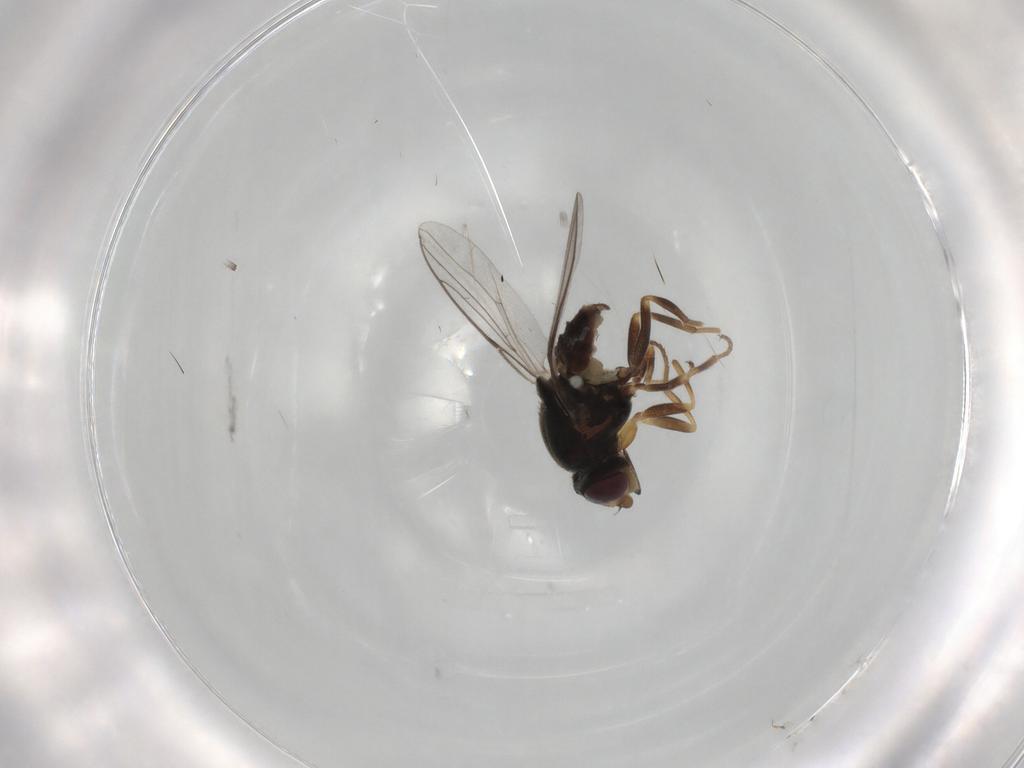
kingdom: Animalia
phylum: Arthropoda
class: Insecta
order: Diptera
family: Chloropidae
